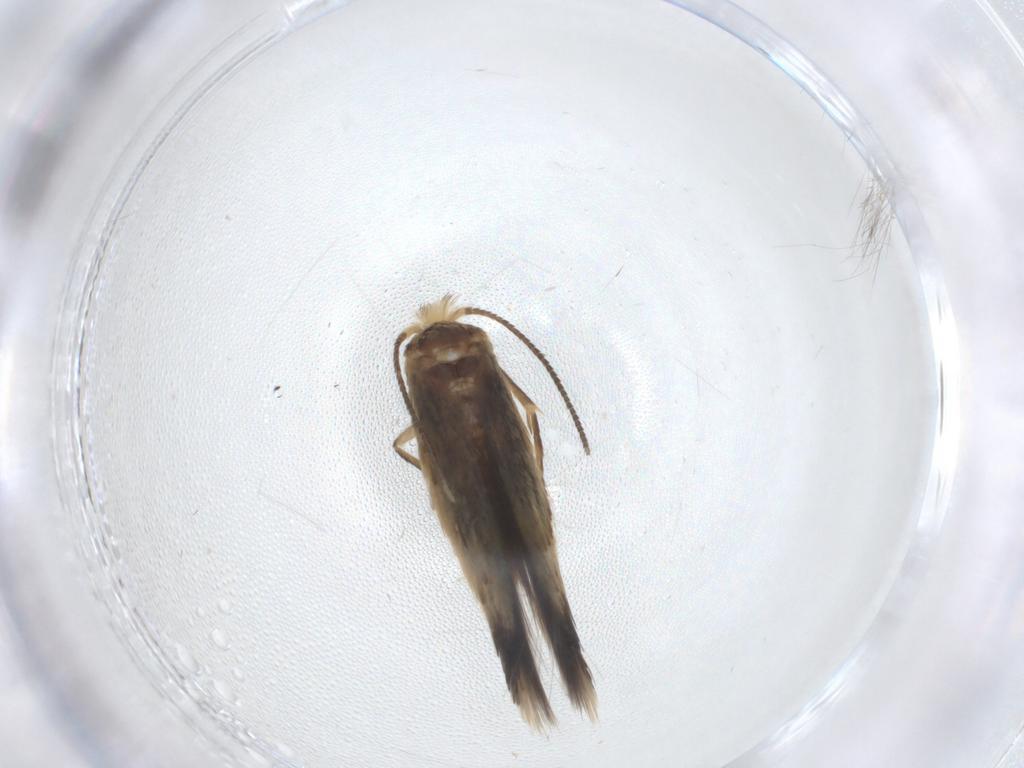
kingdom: Animalia
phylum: Arthropoda
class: Insecta
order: Lepidoptera
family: Nepticulidae
